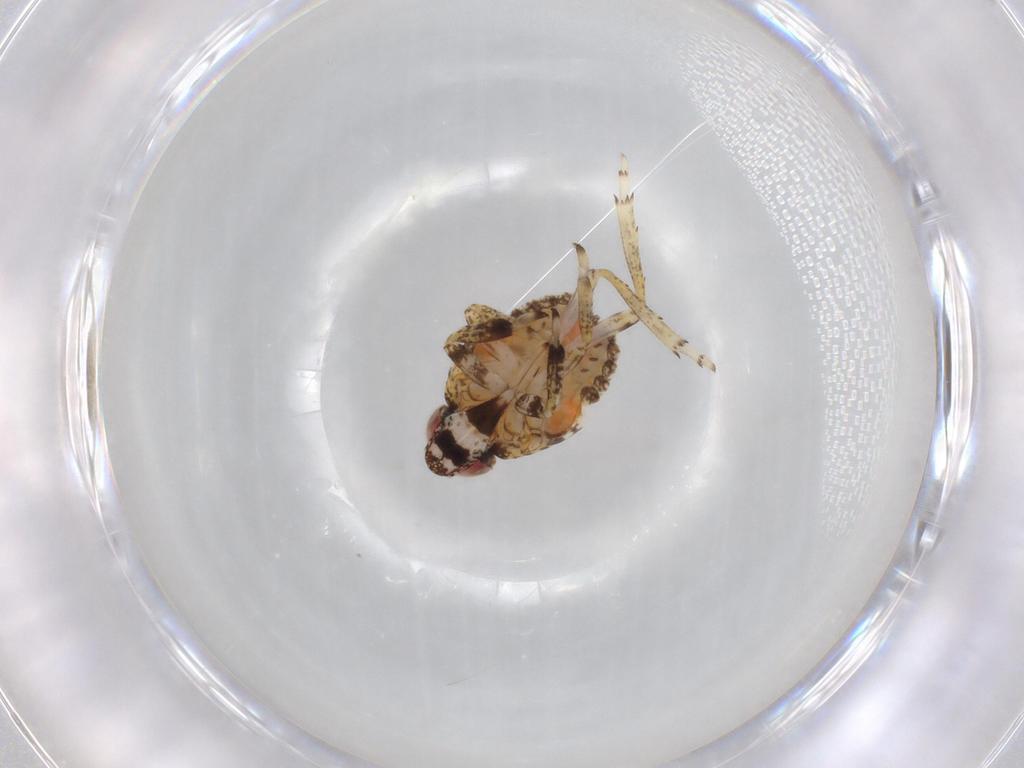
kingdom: Animalia
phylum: Arthropoda
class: Insecta
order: Hemiptera
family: Issidae
